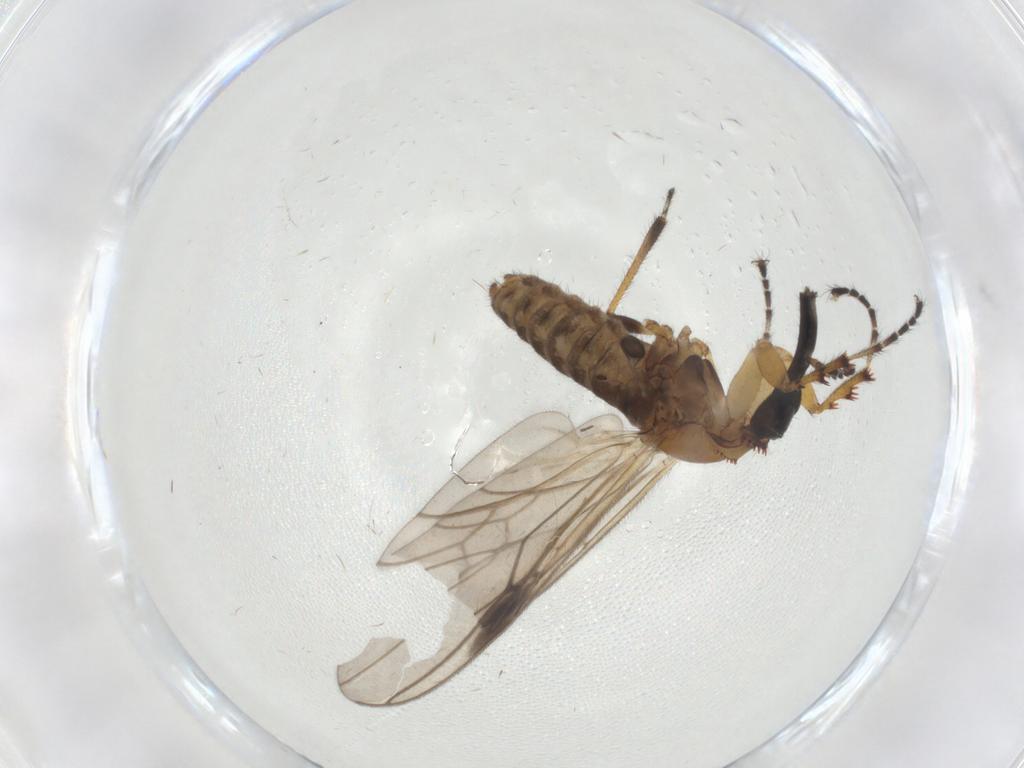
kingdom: Animalia
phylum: Arthropoda
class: Insecta
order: Diptera
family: Bibionidae
